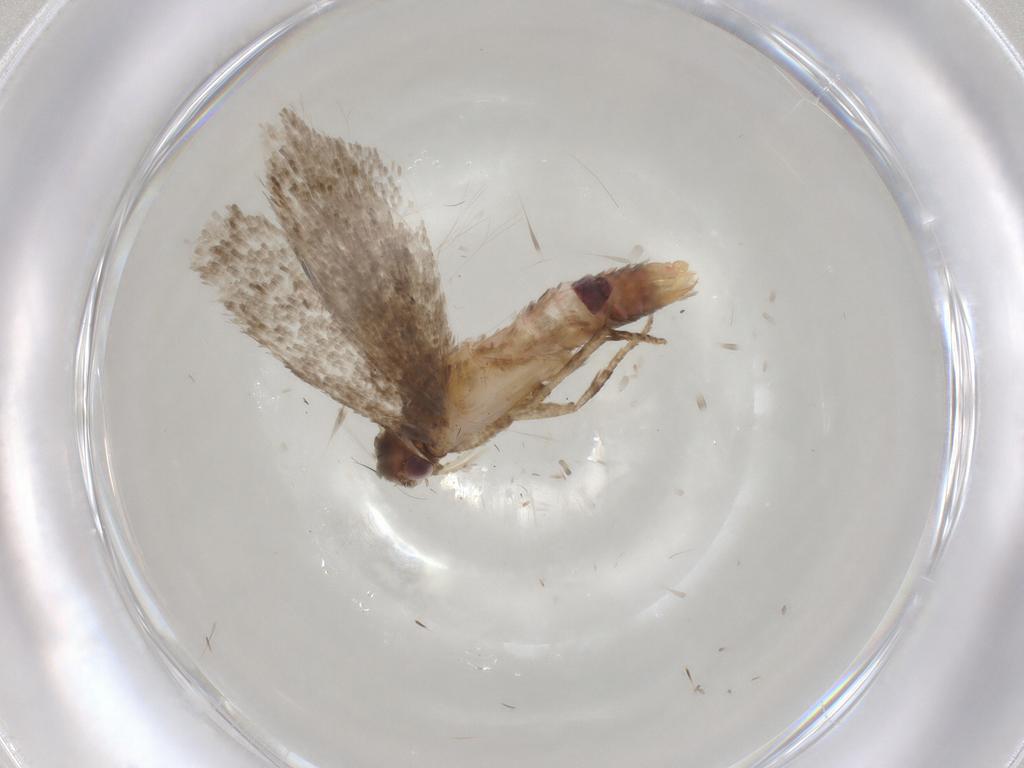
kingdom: Animalia
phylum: Arthropoda
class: Insecta
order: Lepidoptera
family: Gelechiidae
